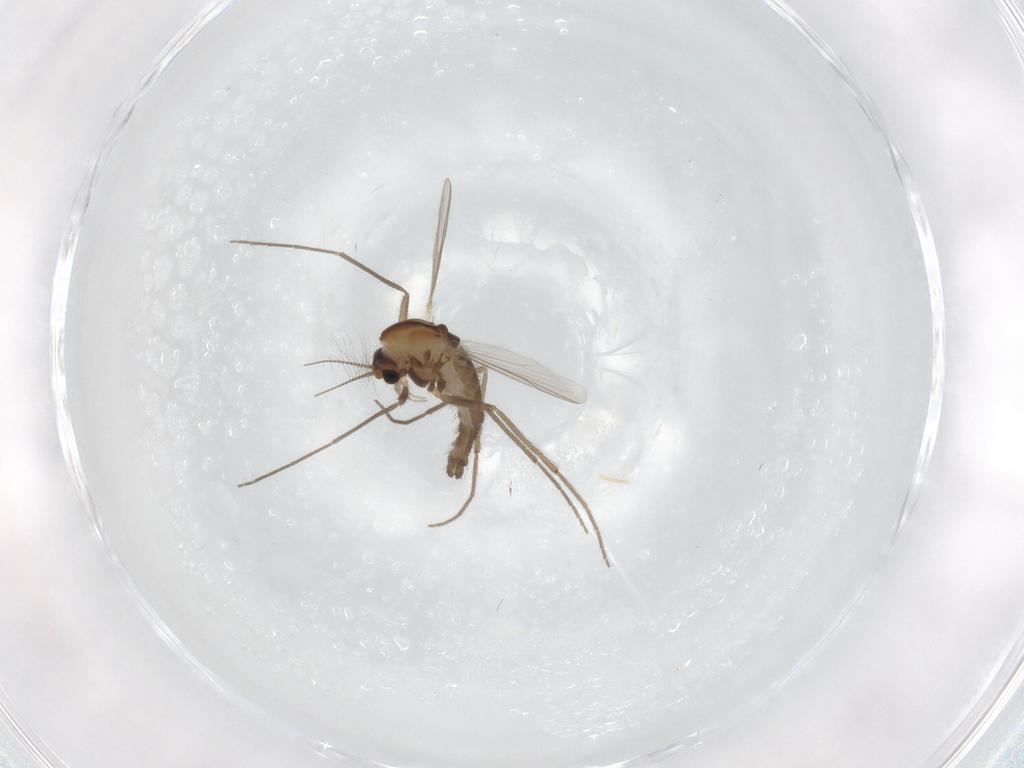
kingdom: Animalia
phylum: Arthropoda
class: Insecta
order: Diptera
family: Chironomidae
